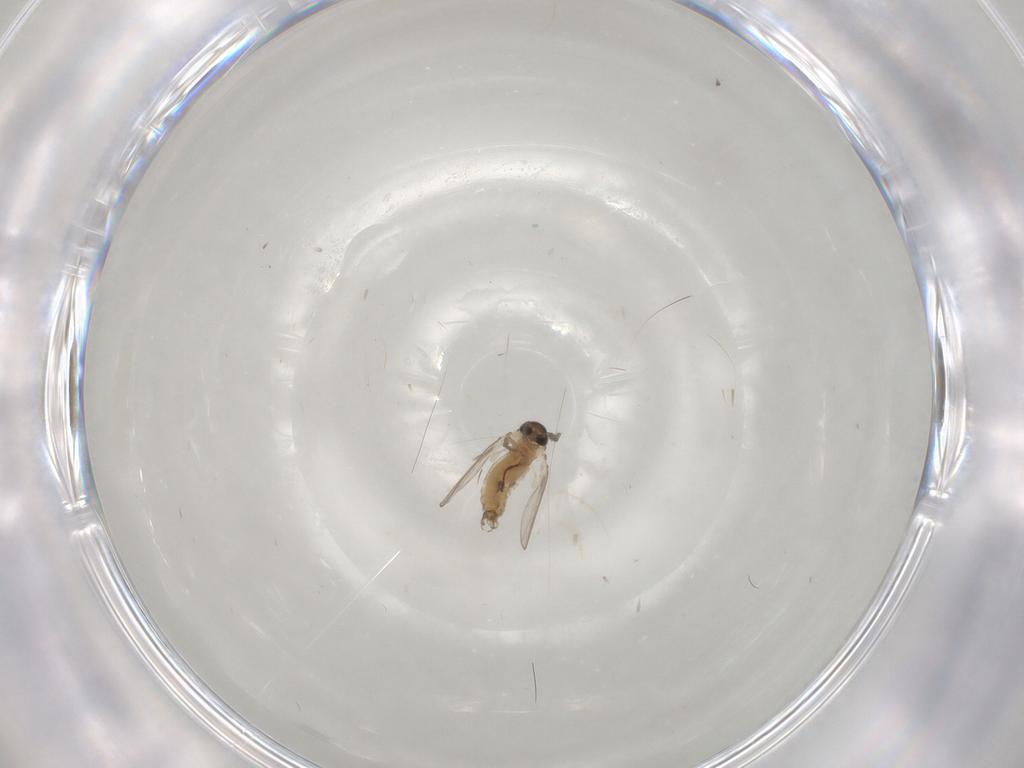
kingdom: Animalia
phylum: Arthropoda
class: Insecta
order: Diptera
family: Psychodidae
